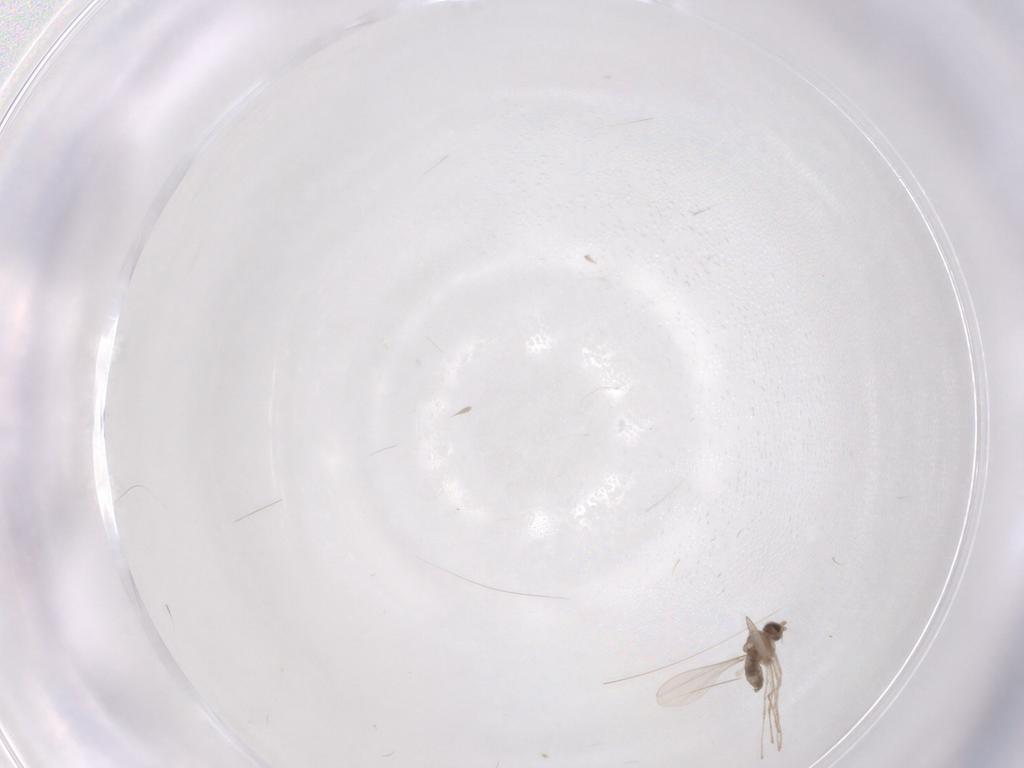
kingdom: Animalia
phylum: Arthropoda
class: Insecta
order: Diptera
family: Cecidomyiidae
